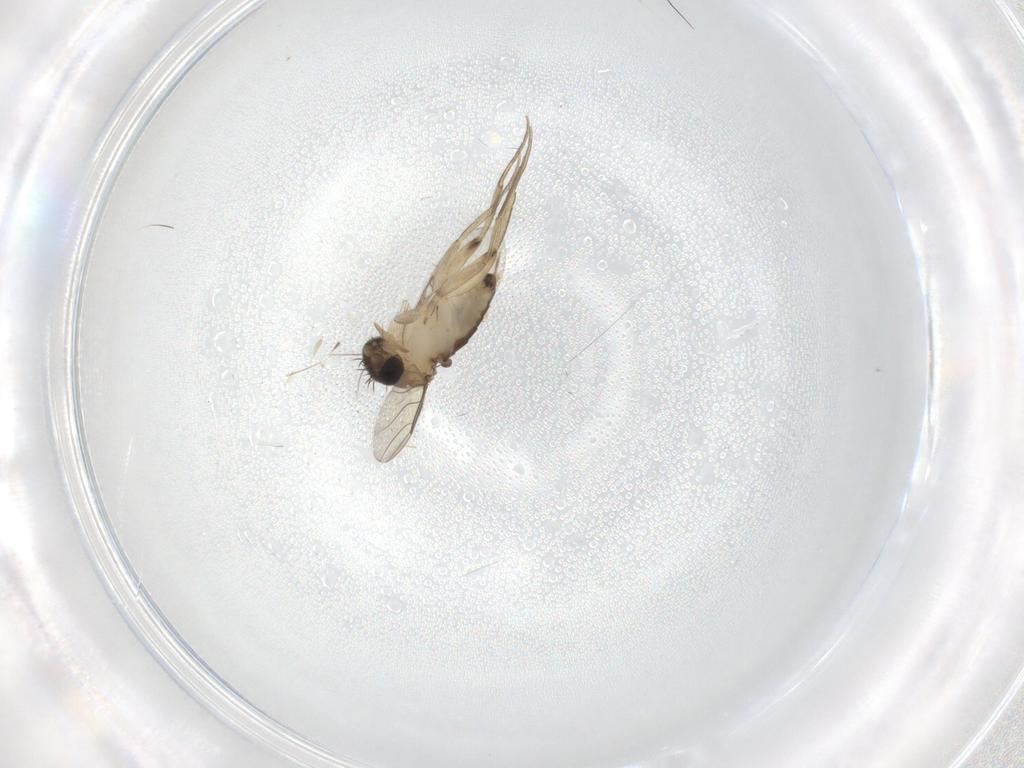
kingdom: Animalia
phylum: Arthropoda
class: Insecta
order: Diptera
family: Phoridae
